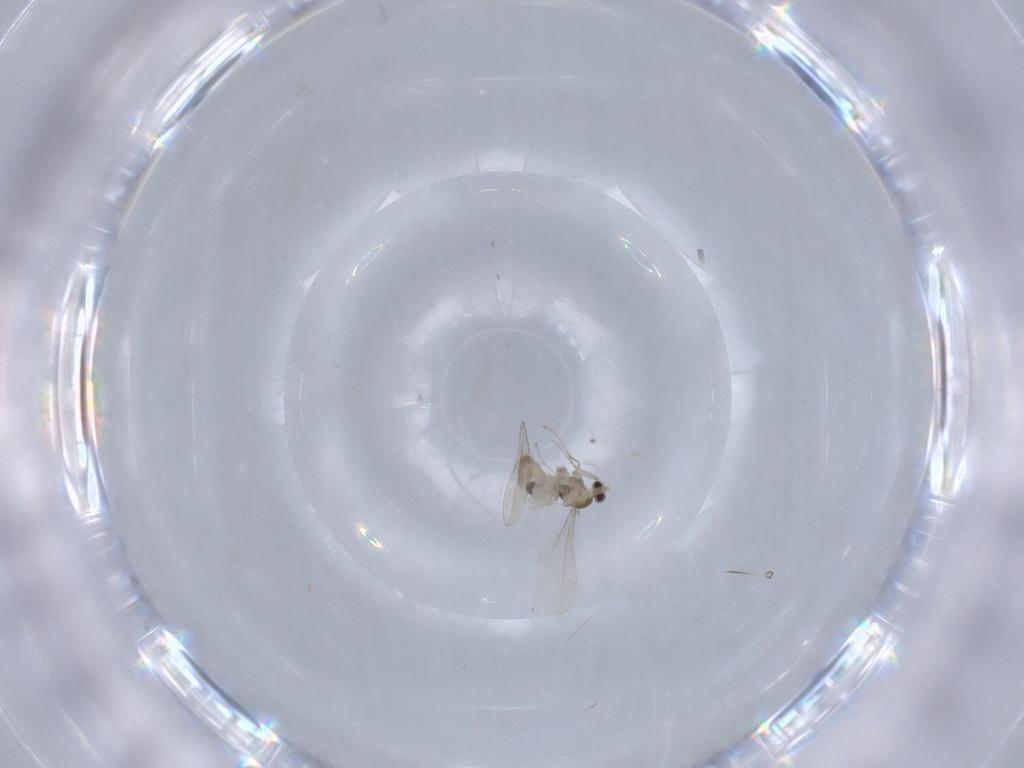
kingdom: Animalia
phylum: Arthropoda
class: Insecta
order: Diptera
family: Cecidomyiidae
